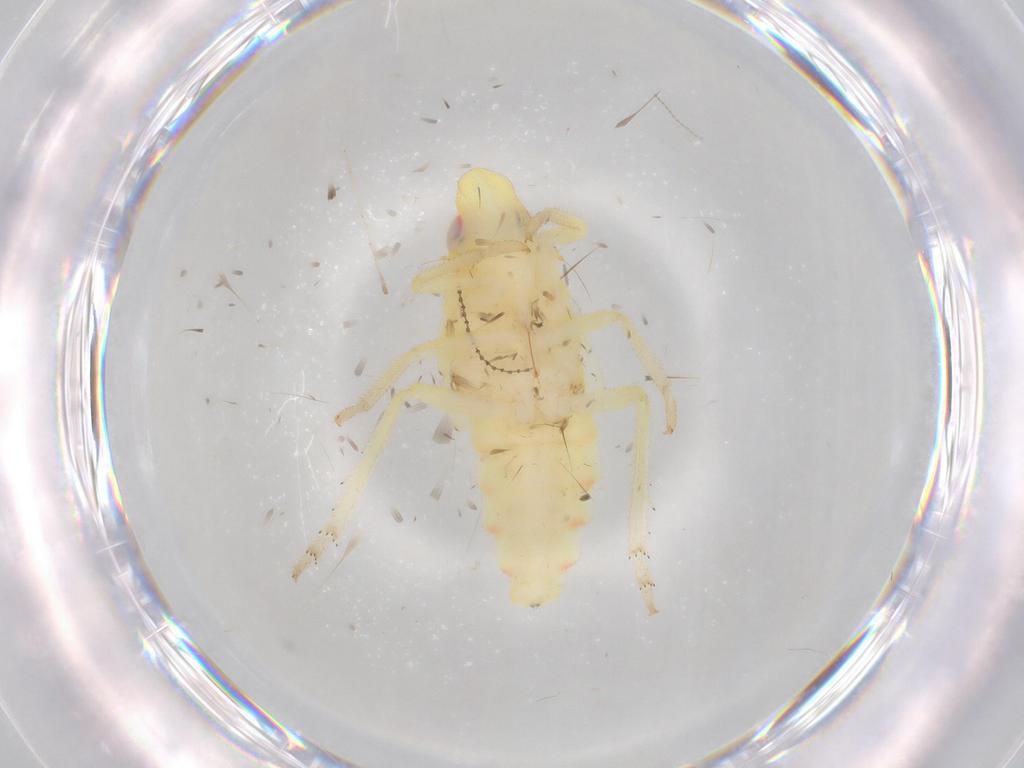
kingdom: Animalia
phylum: Arthropoda
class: Insecta
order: Hemiptera
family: Tropiduchidae
